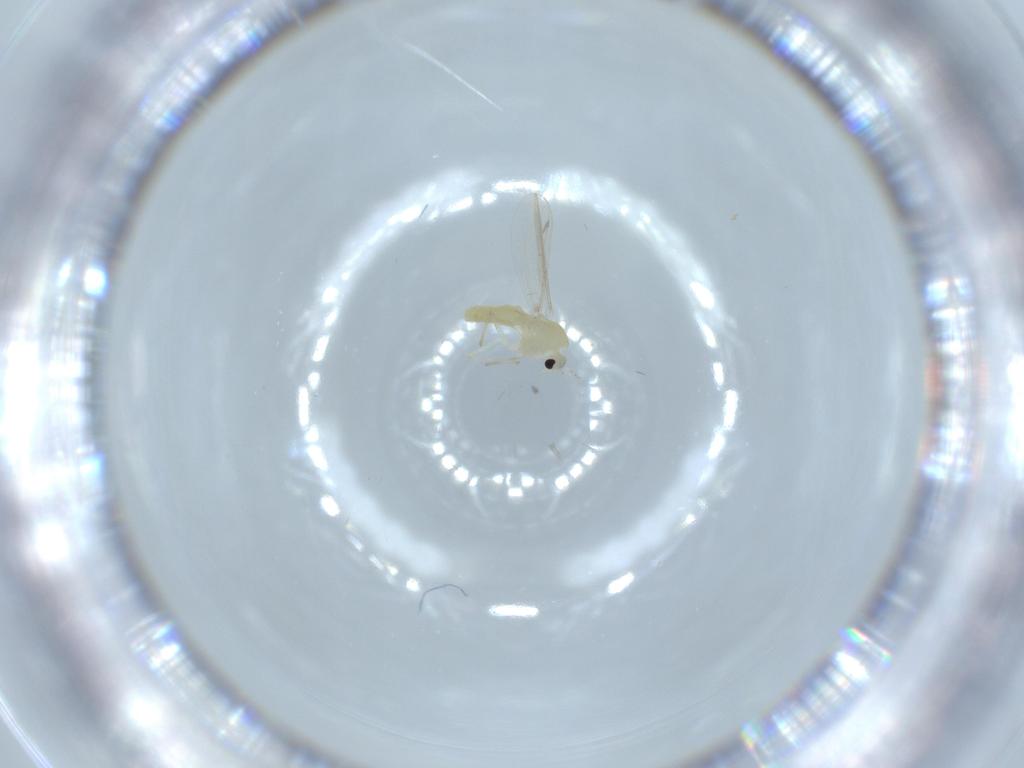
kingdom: Animalia
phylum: Arthropoda
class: Insecta
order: Diptera
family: Chironomidae
